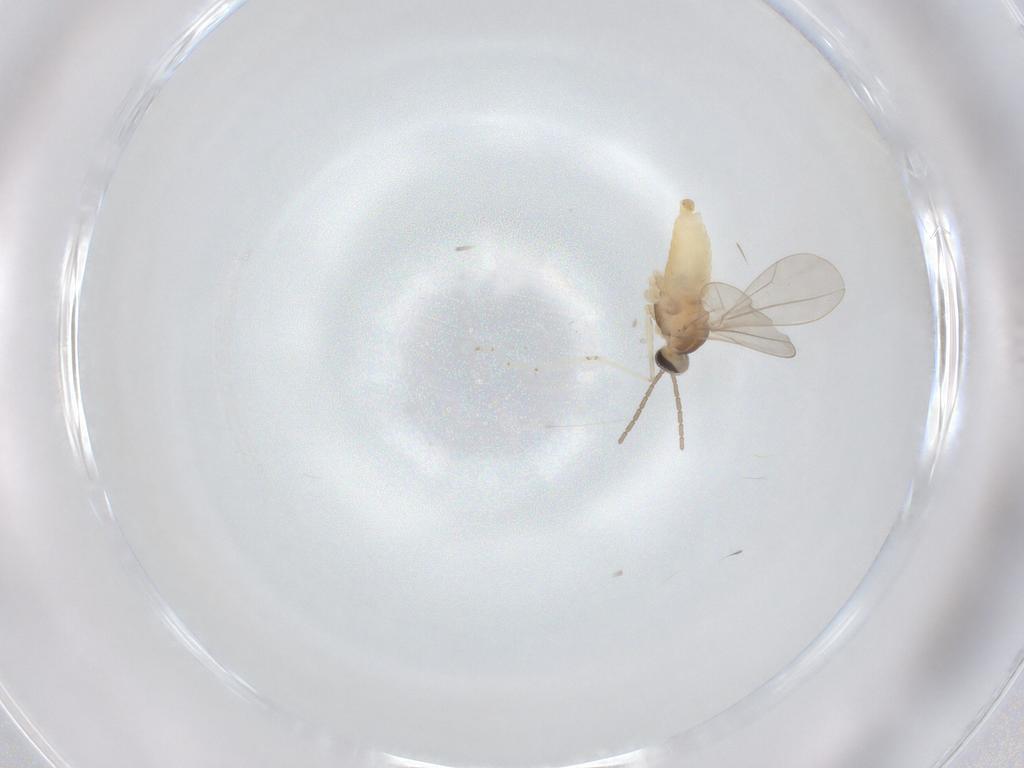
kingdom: Animalia
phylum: Arthropoda
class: Insecta
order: Diptera
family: Cecidomyiidae
